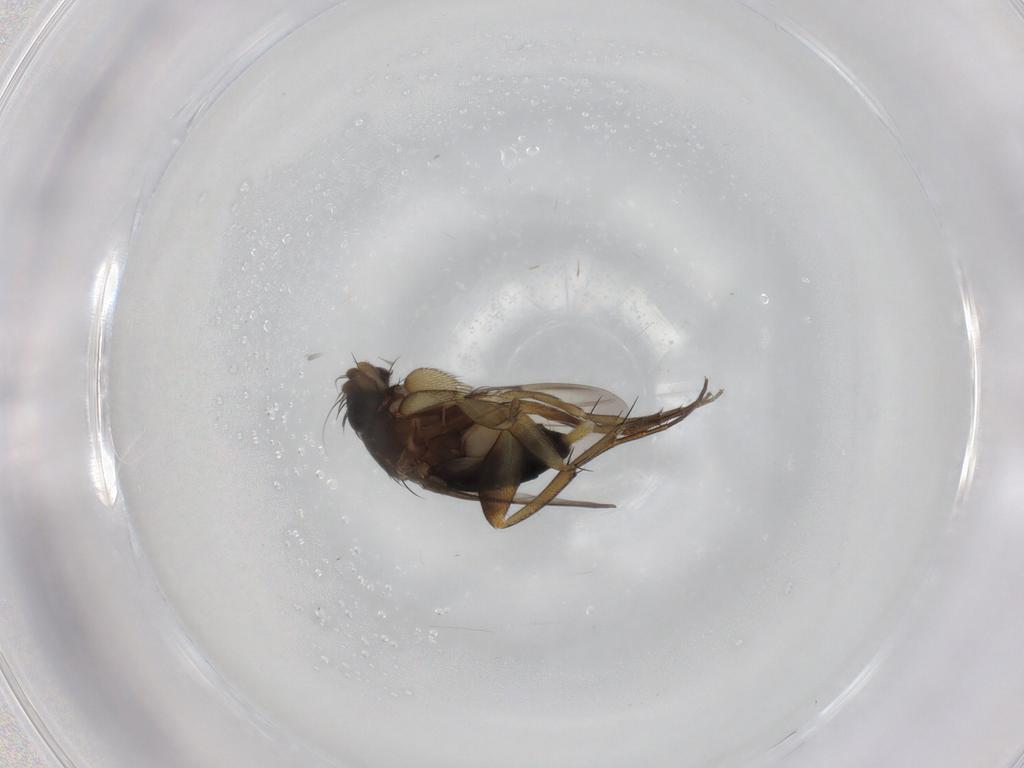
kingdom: Animalia
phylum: Arthropoda
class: Insecta
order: Diptera
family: Phoridae
